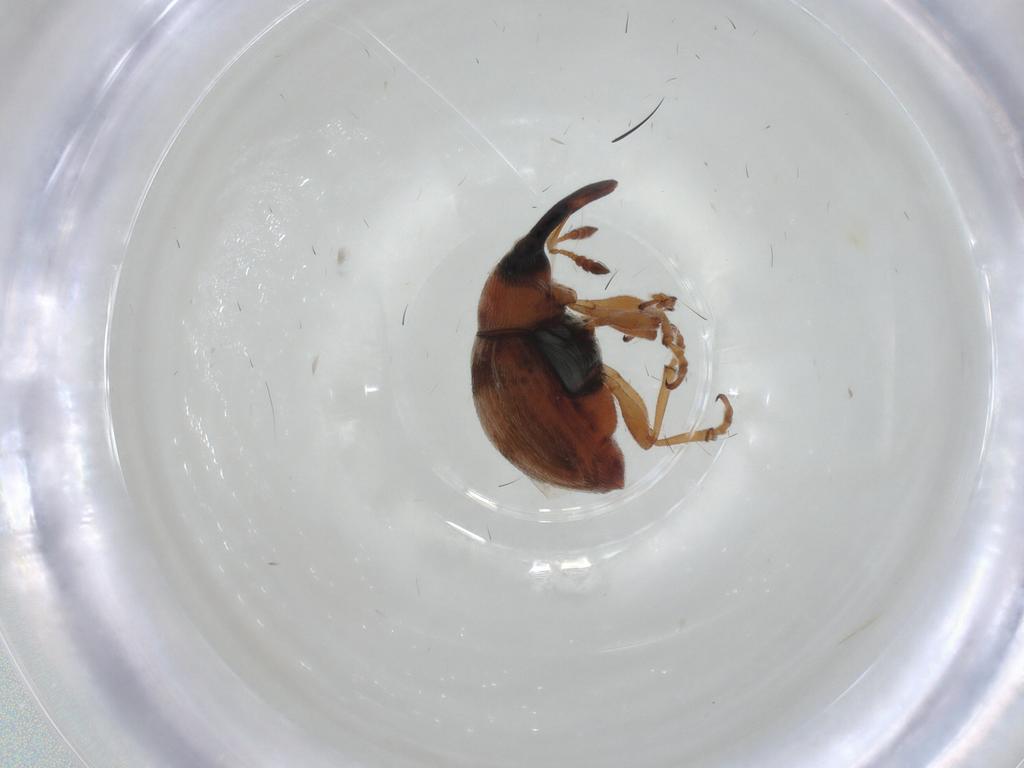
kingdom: Animalia
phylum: Arthropoda
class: Insecta
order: Coleoptera
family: Brentidae
